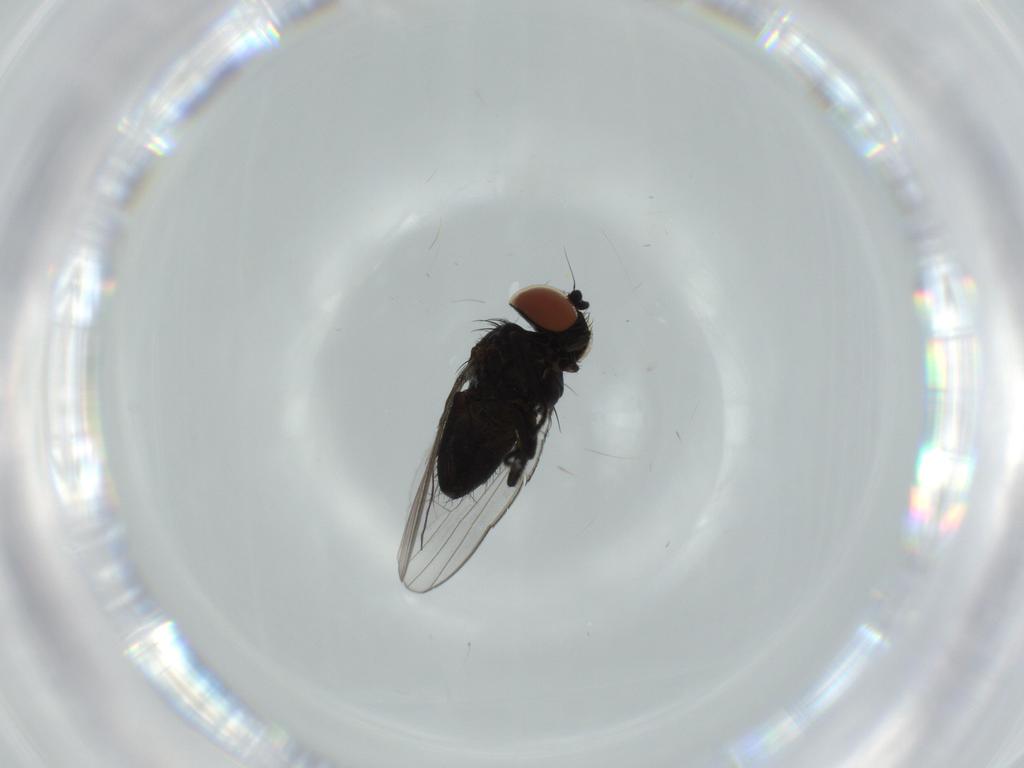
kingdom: Animalia
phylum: Arthropoda
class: Insecta
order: Diptera
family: Milichiidae
